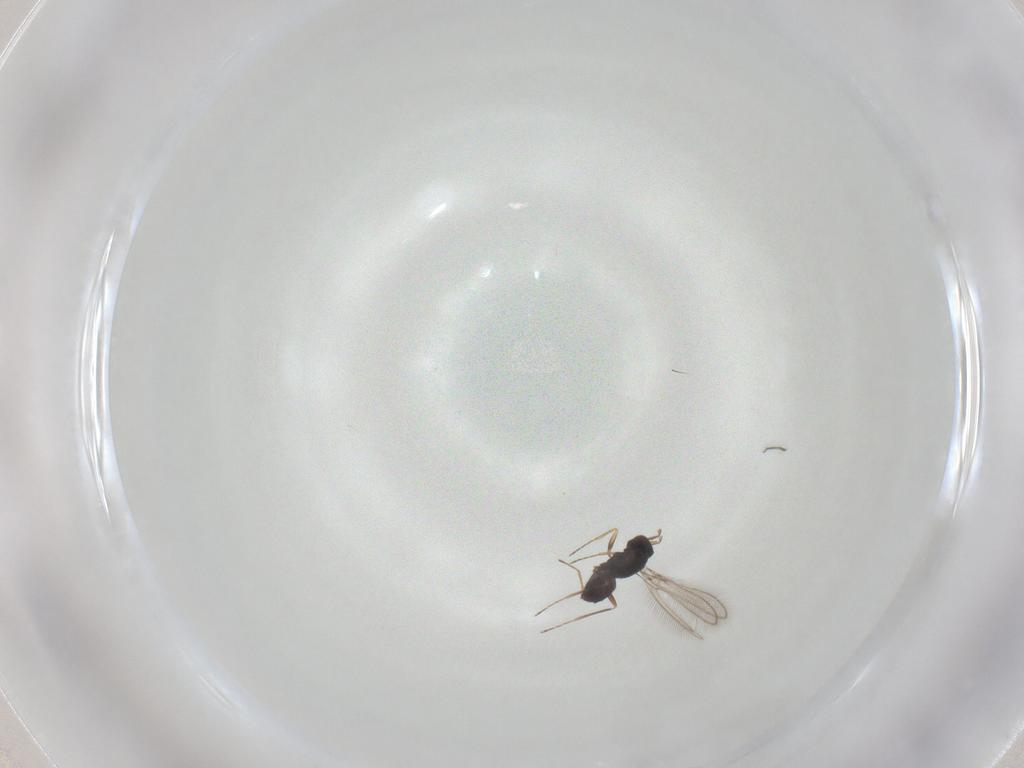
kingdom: Animalia
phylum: Arthropoda
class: Insecta
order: Hymenoptera
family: Mymaridae
